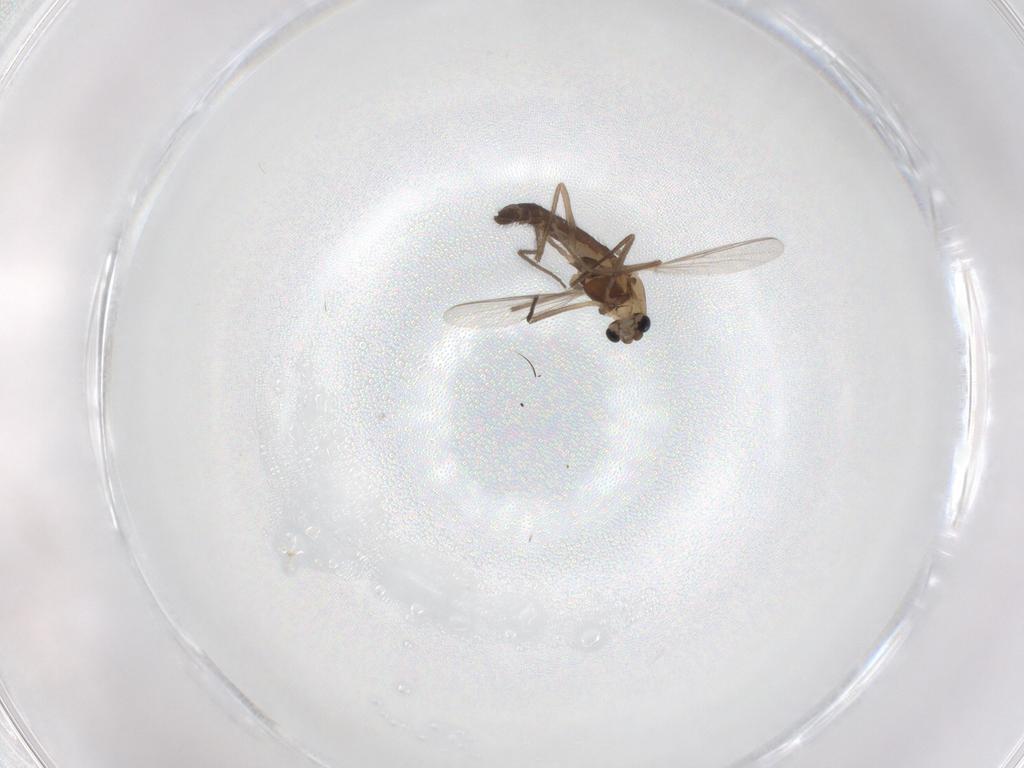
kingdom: Animalia
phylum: Arthropoda
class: Insecta
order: Diptera
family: Chironomidae
